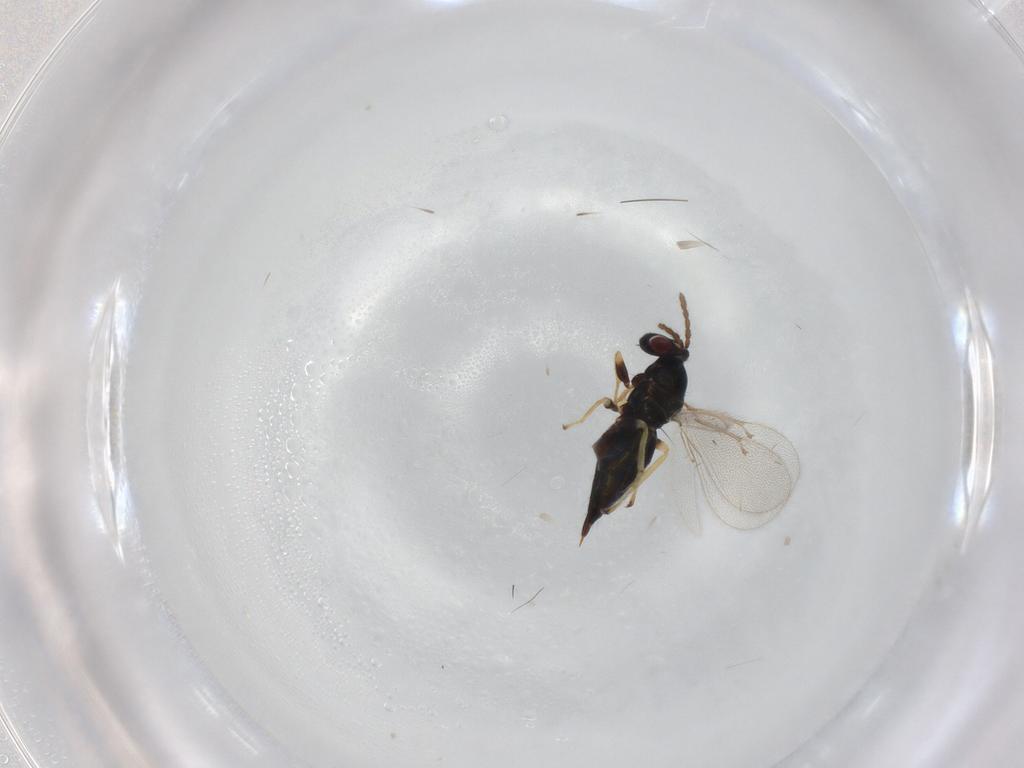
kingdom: Animalia
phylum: Arthropoda
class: Insecta
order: Hymenoptera
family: Eulophidae
